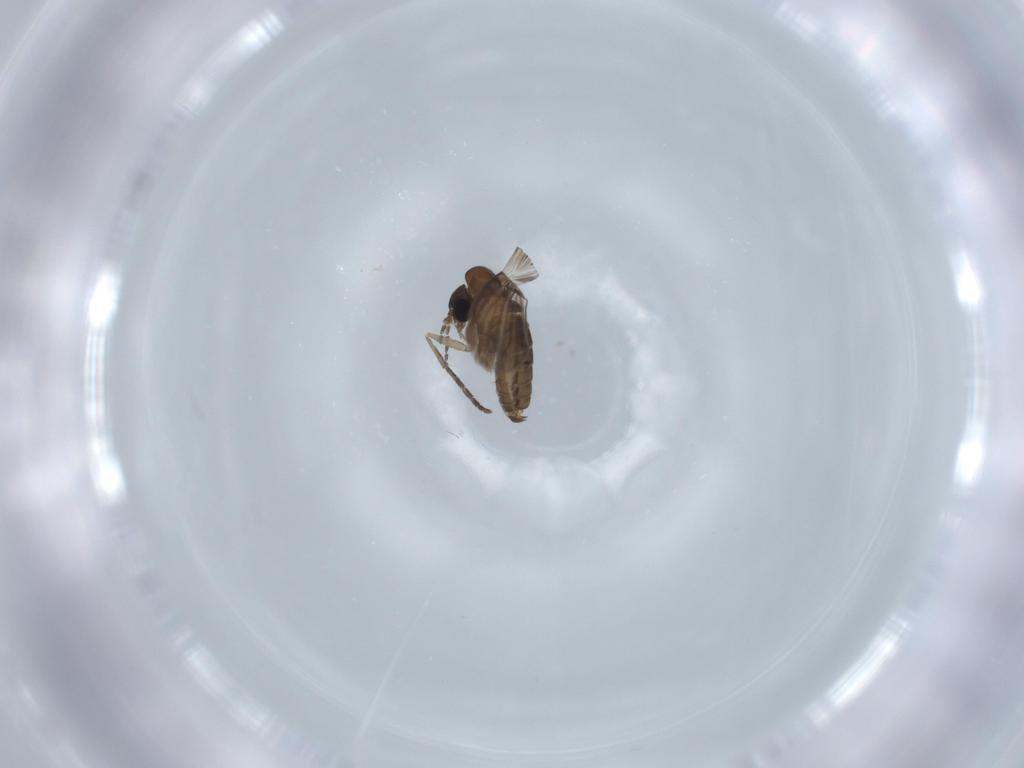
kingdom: Animalia
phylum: Arthropoda
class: Insecta
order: Diptera
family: Psychodidae
